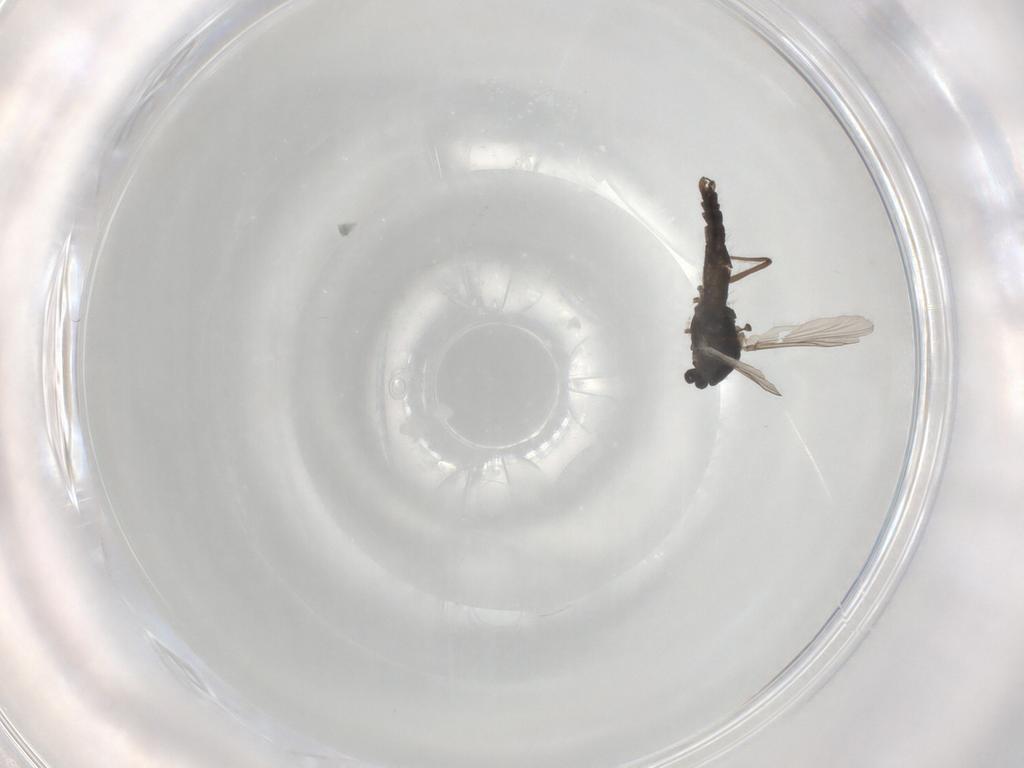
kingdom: Animalia
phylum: Arthropoda
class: Insecta
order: Diptera
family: Chironomidae
